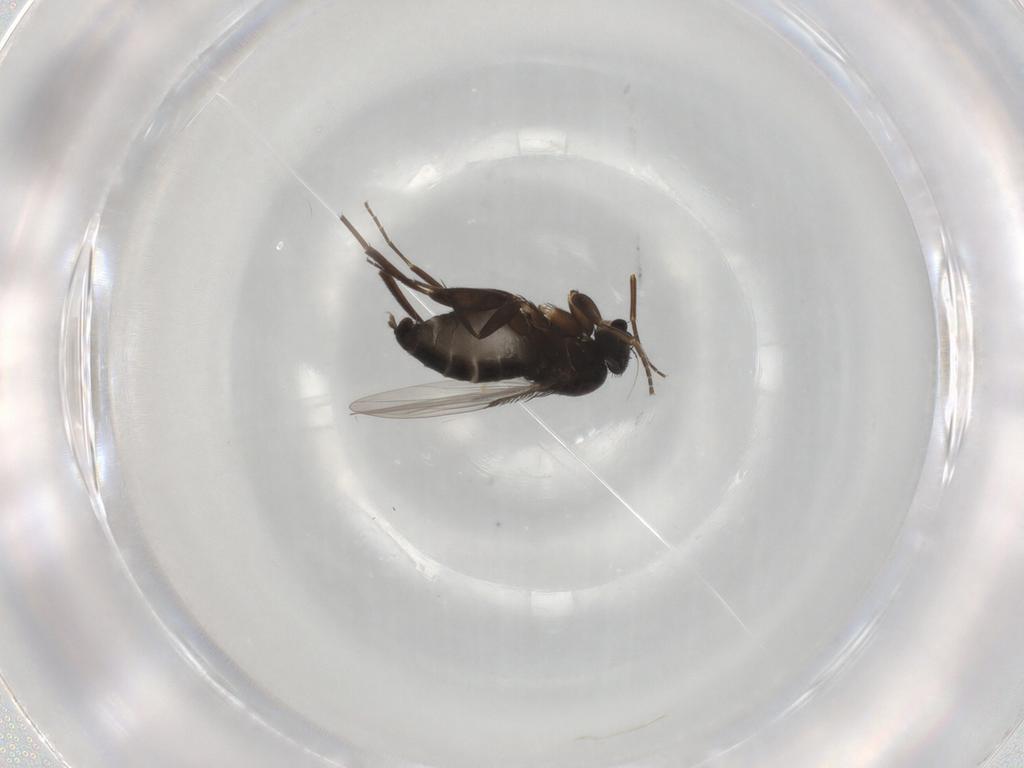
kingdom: Animalia
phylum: Arthropoda
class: Insecta
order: Diptera
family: Phoridae
